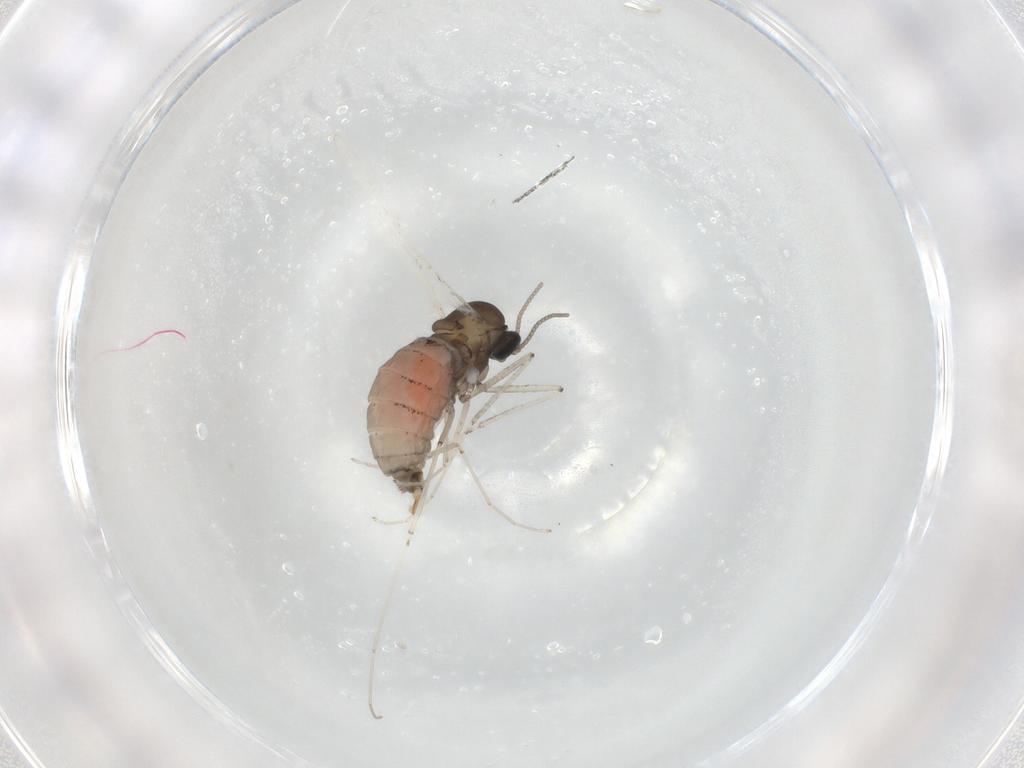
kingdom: Animalia
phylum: Arthropoda
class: Insecta
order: Diptera
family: Cecidomyiidae
